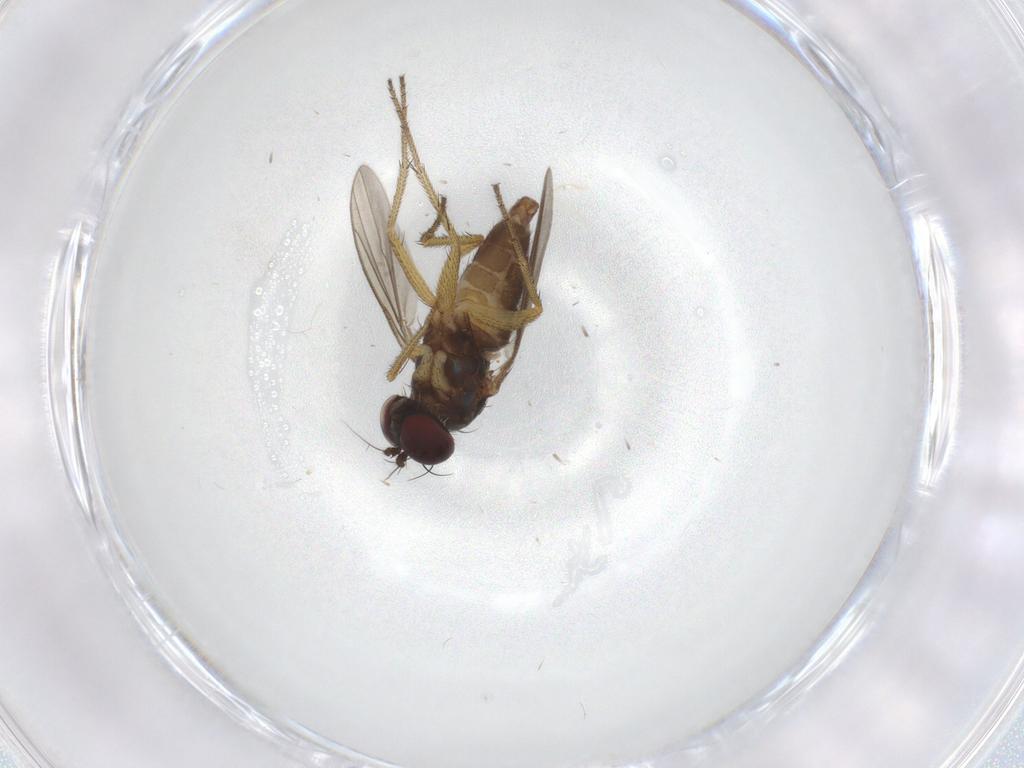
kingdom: Animalia
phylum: Arthropoda
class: Insecta
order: Diptera
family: Dolichopodidae
